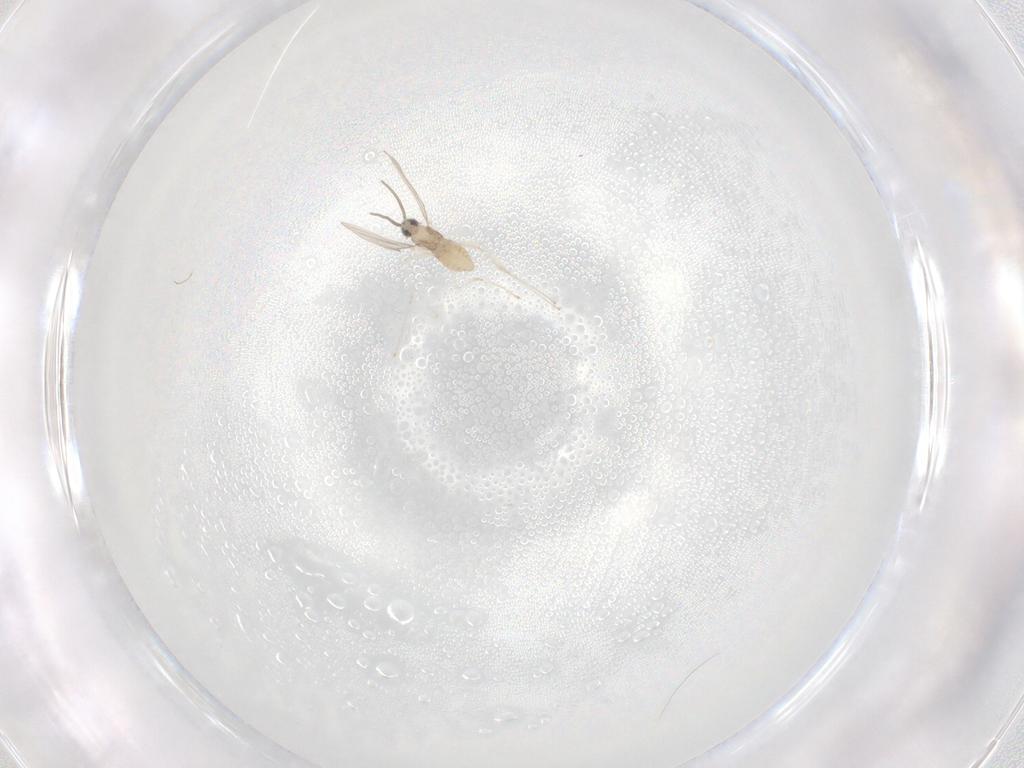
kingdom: Animalia
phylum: Arthropoda
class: Insecta
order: Diptera
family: Cecidomyiidae
